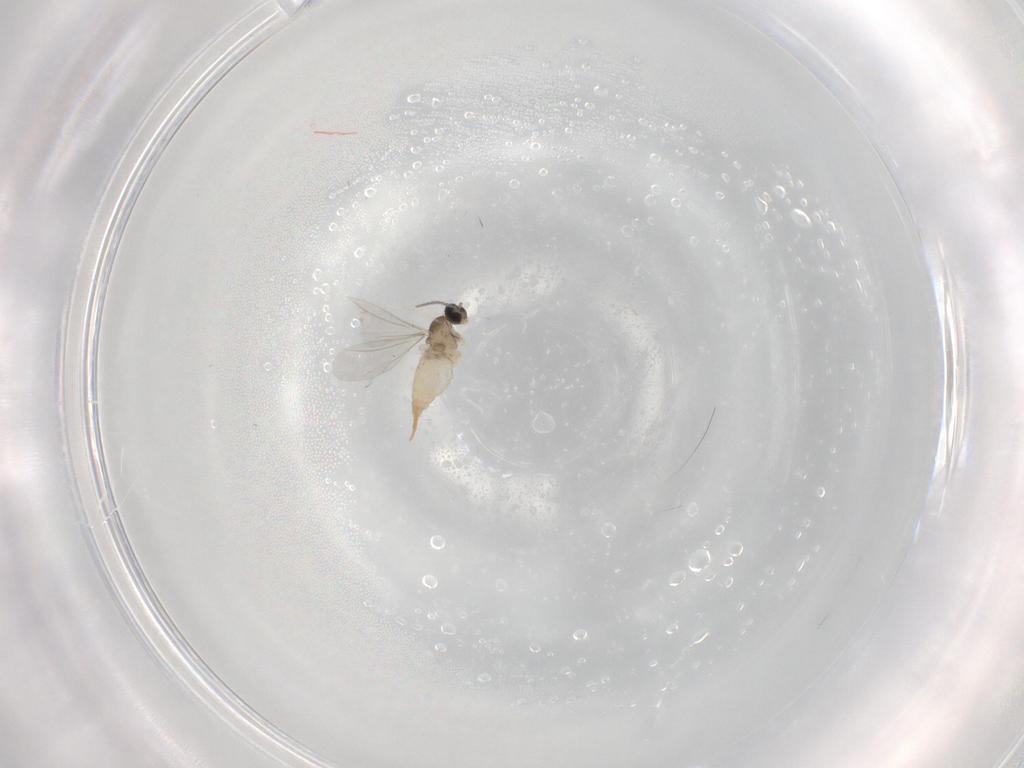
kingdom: Animalia
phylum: Arthropoda
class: Insecta
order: Diptera
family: Cecidomyiidae
